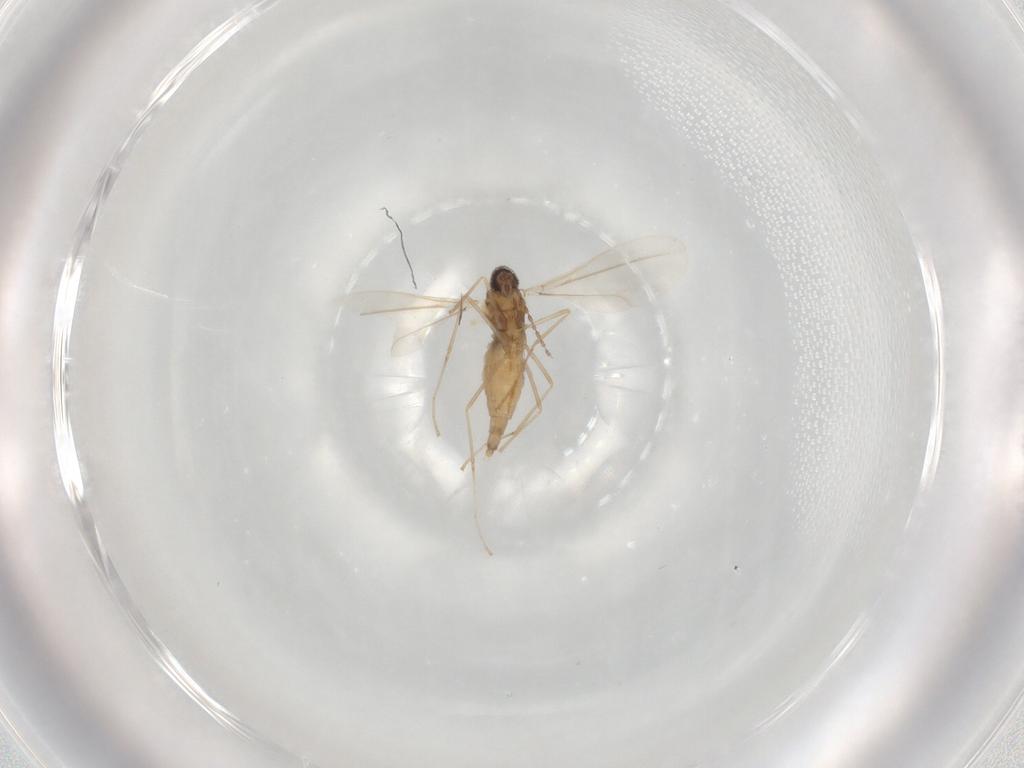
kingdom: Animalia
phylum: Arthropoda
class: Insecta
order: Diptera
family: Cecidomyiidae
